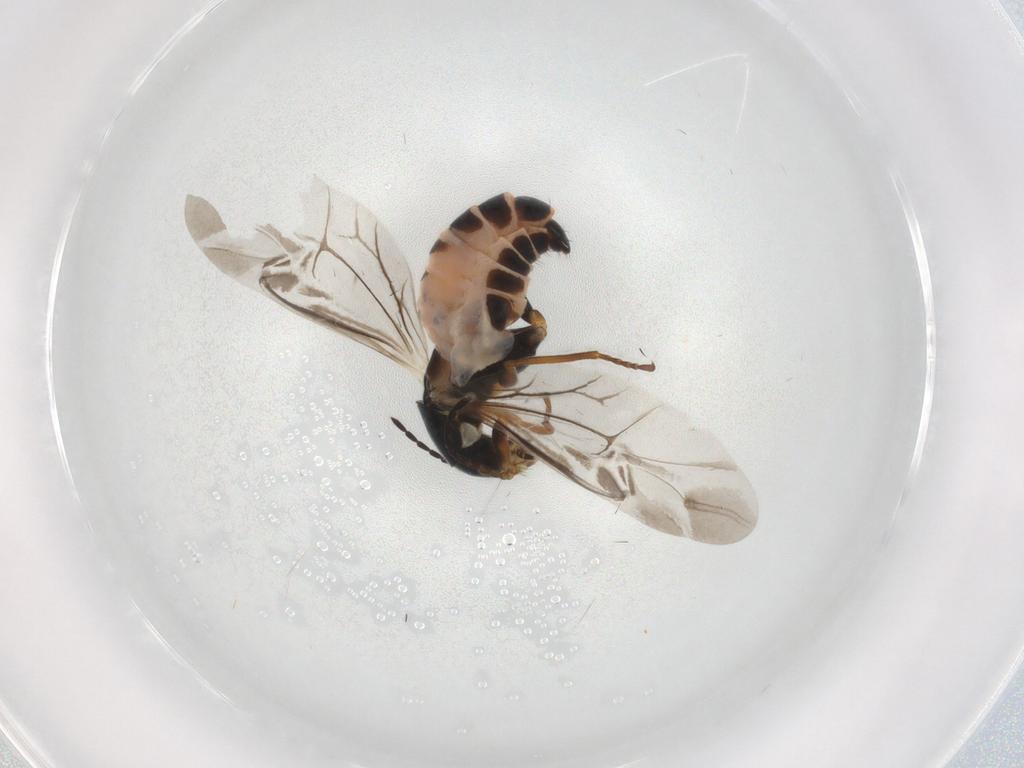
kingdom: Animalia
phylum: Arthropoda
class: Insecta
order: Coleoptera
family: Melyridae
